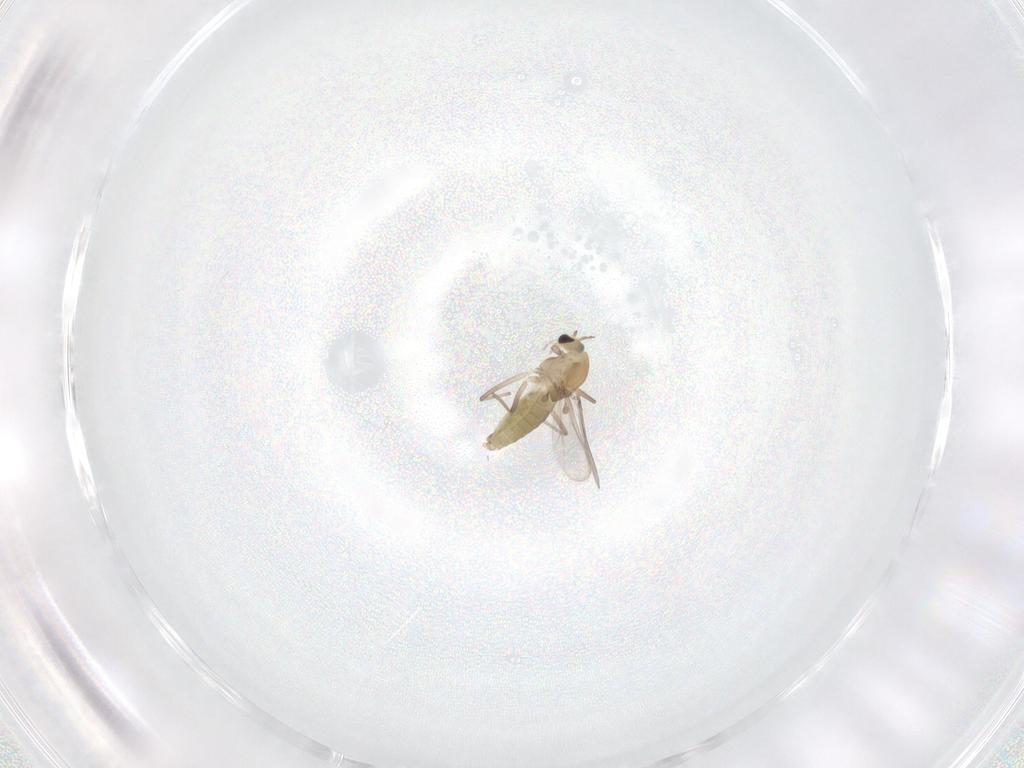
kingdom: Animalia
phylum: Arthropoda
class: Insecta
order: Diptera
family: Chironomidae
